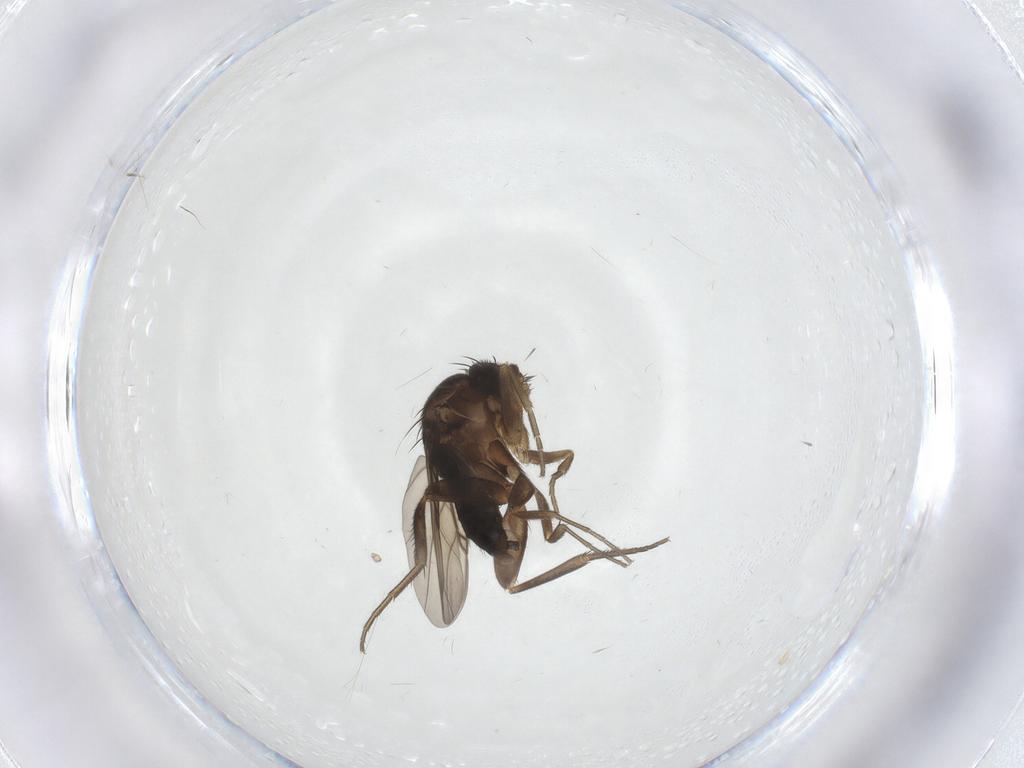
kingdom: Animalia
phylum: Arthropoda
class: Insecta
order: Diptera
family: Phoridae
